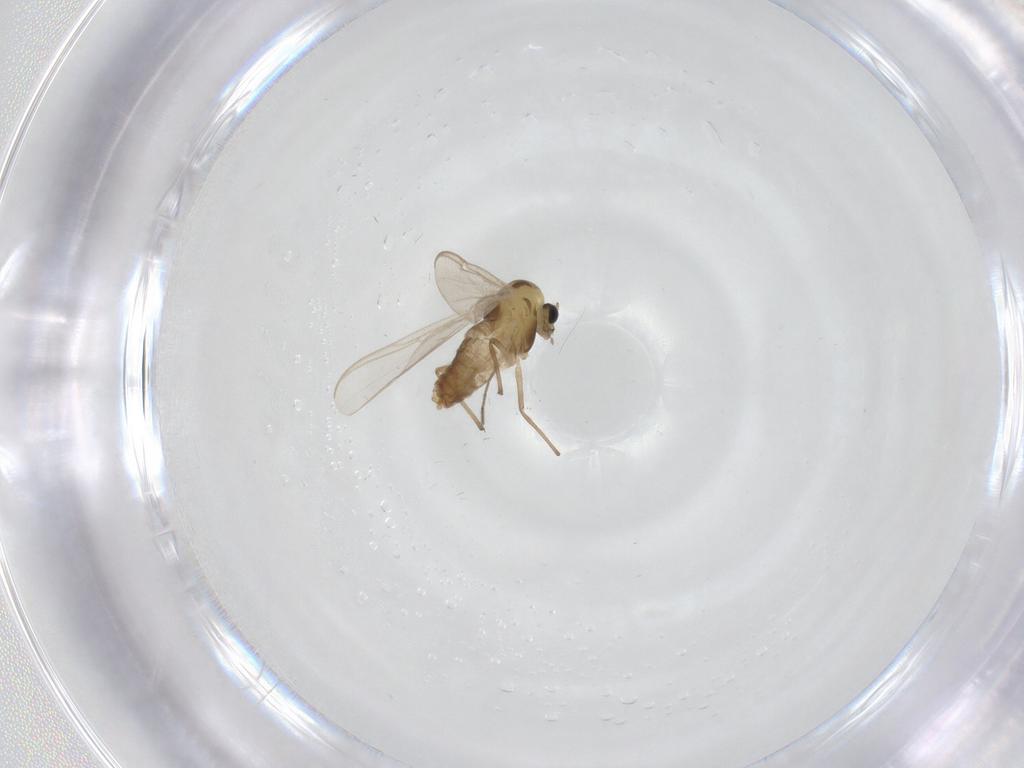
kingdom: Animalia
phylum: Arthropoda
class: Insecta
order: Diptera
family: Chironomidae
